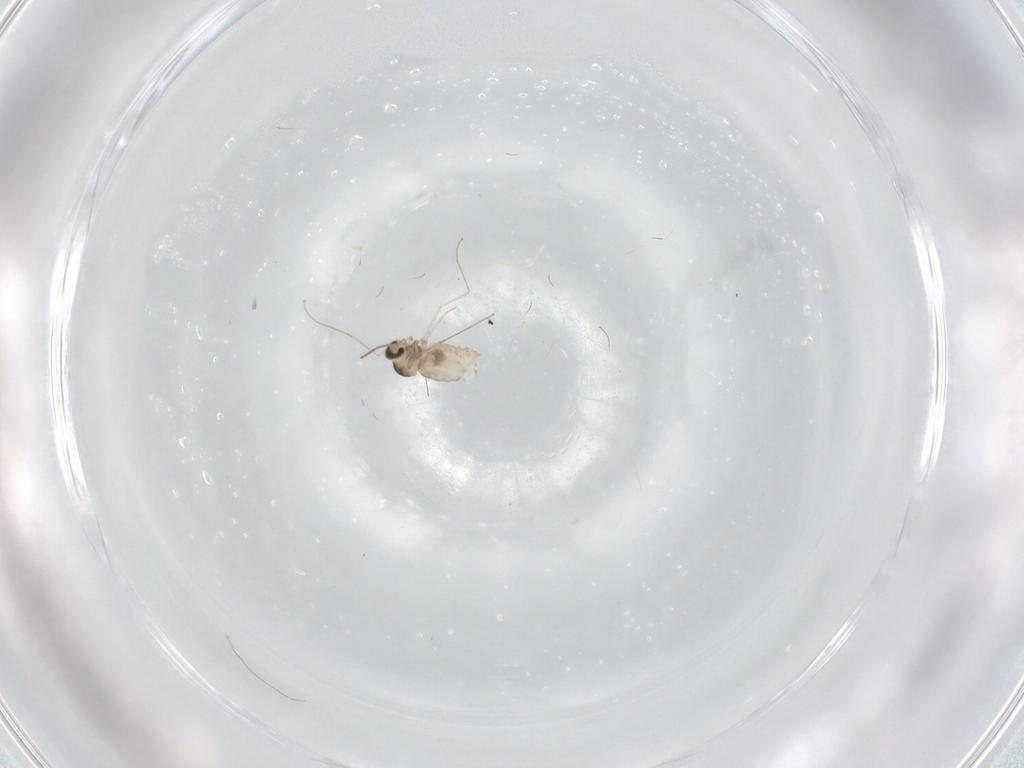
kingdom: Animalia
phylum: Arthropoda
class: Insecta
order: Diptera
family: Cecidomyiidae
